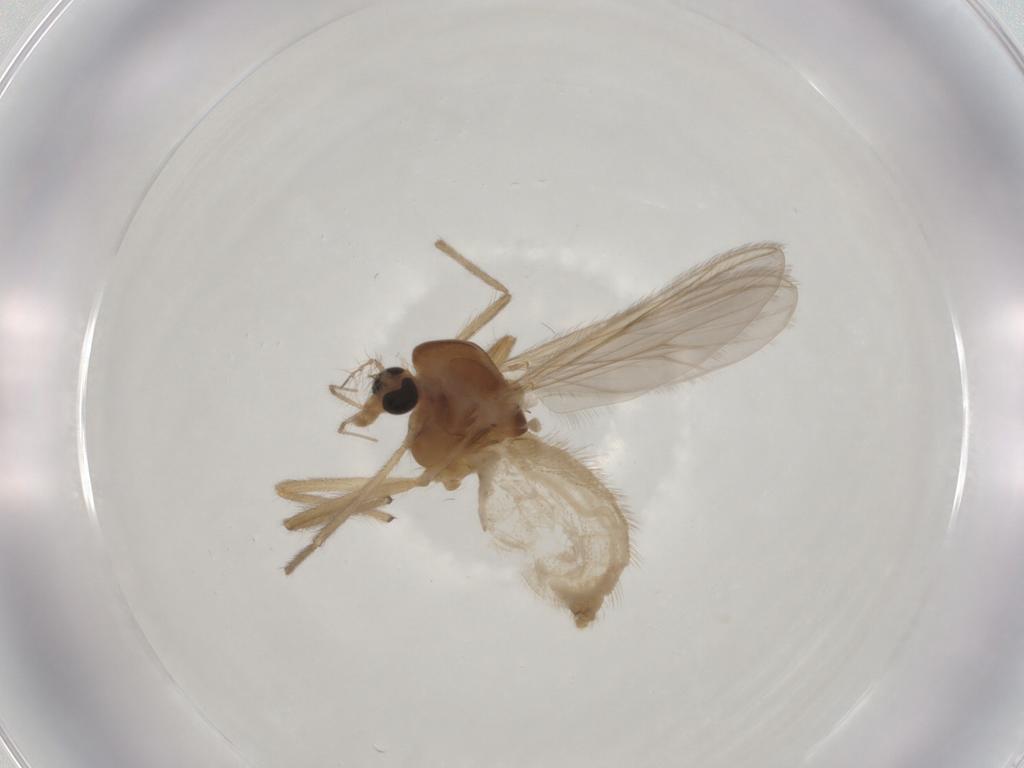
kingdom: Animalia
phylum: Arthropoda
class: Insecta
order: Diptera
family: Chironomidae
